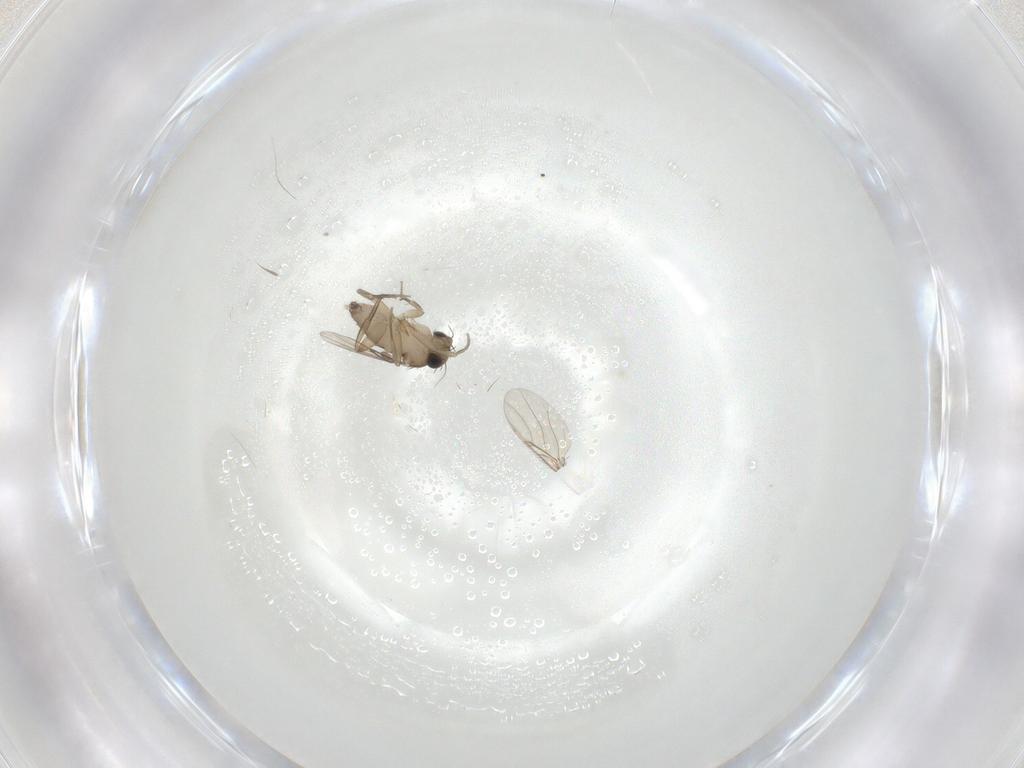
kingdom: Animalia
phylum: Arthropoda
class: Insecta
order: Diptera
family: Phoridae
